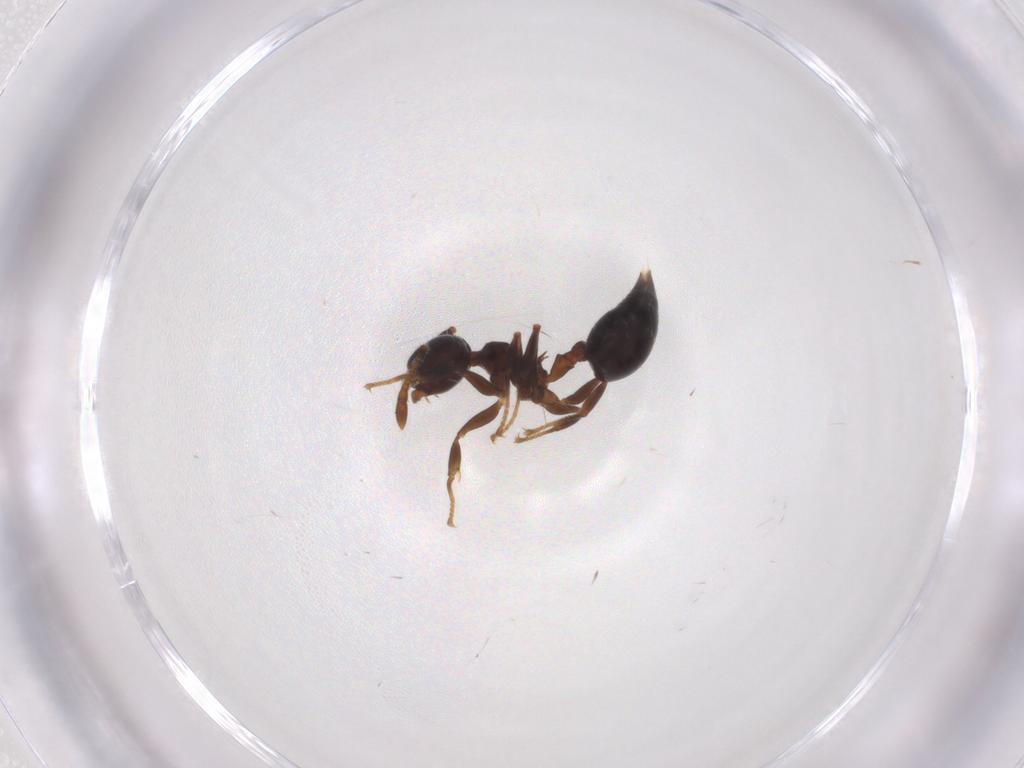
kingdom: Animalia
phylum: Arthropoda
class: Insecta
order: Hymenoptera
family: Formicidae
